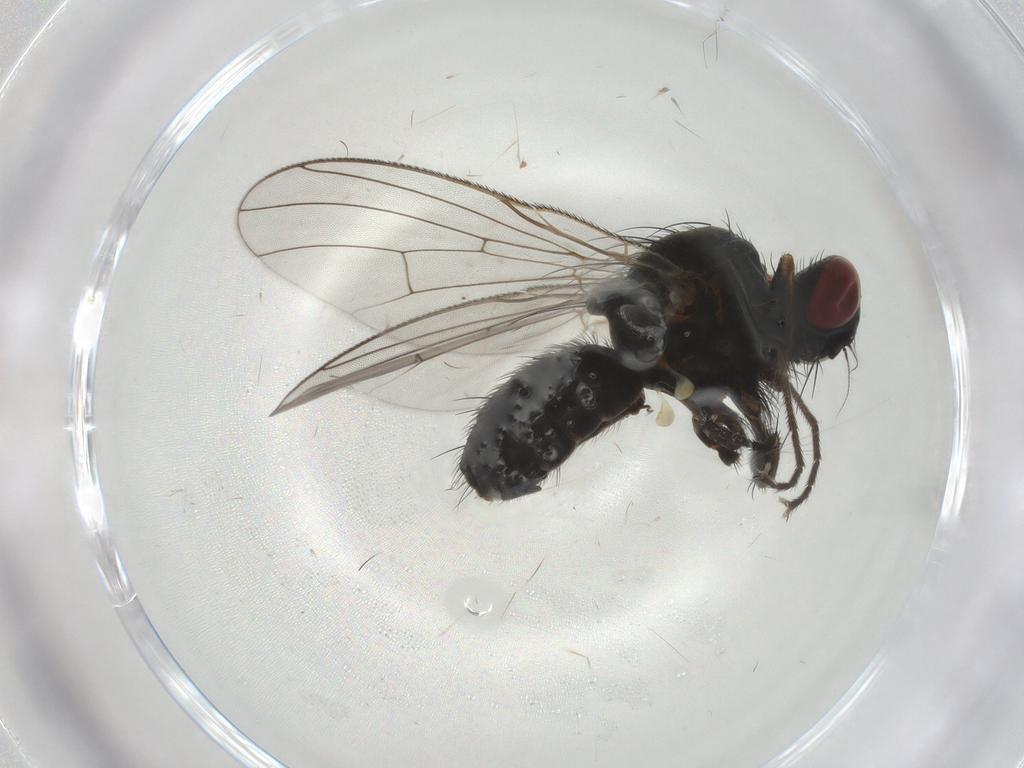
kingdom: Animalia
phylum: Arthropoda
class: Insecta
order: Diptera
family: Muscidae
